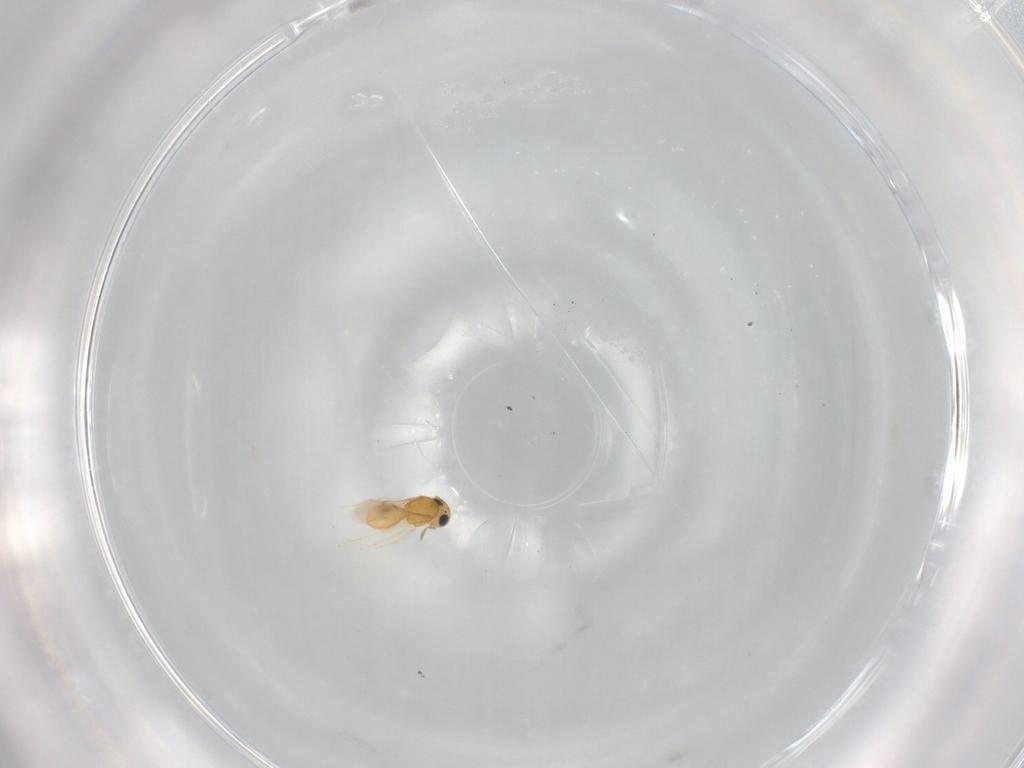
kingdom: Animalia
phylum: Arthropoda
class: Insecta
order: Hymenoptera
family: Scelionidae
